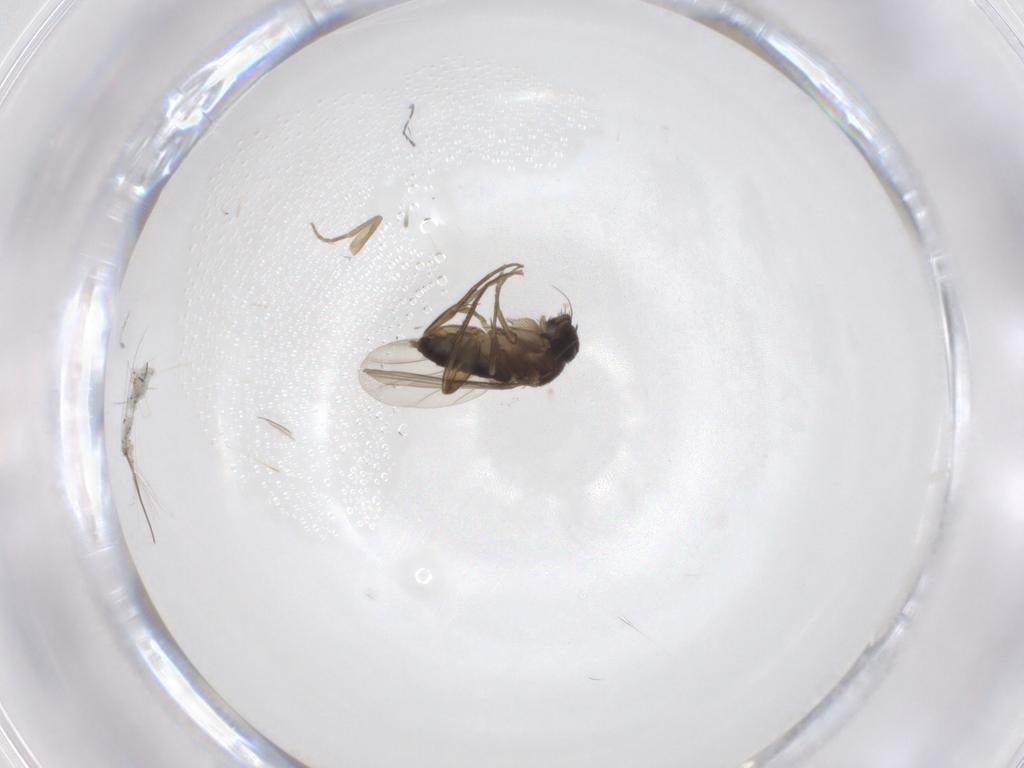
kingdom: Animalia
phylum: Arthropoda
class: Insecta
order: Diptera
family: Phoridae
